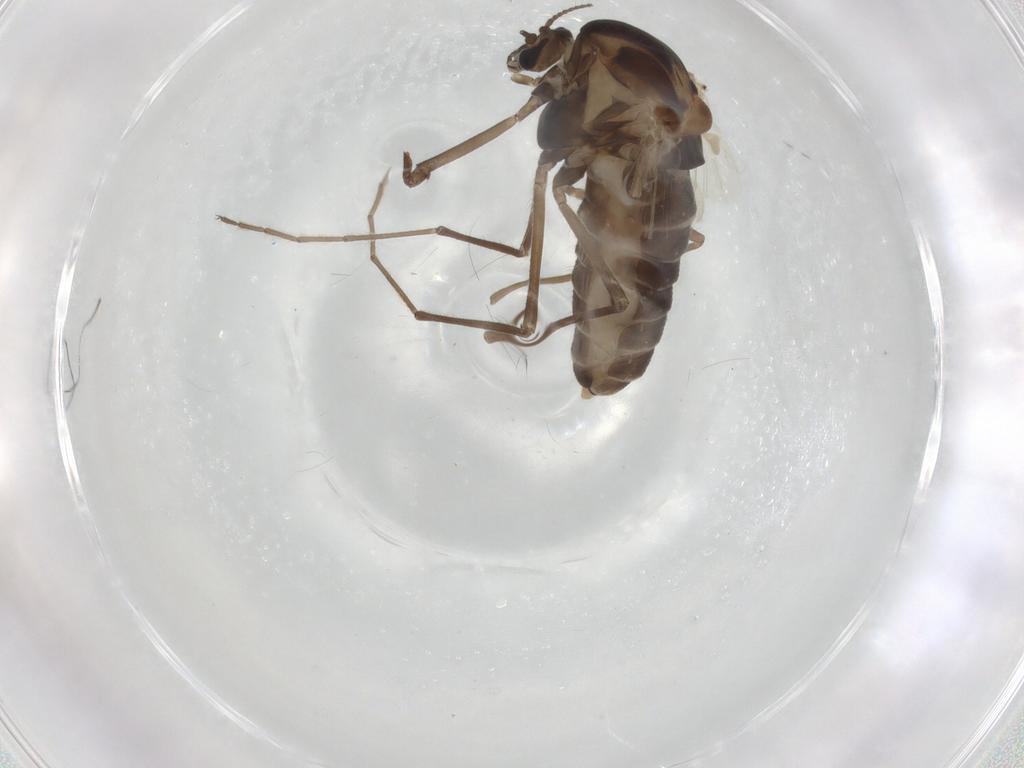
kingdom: Animalia
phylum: Arthropoda
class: Insecta
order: Diptera
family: Chironomidae
